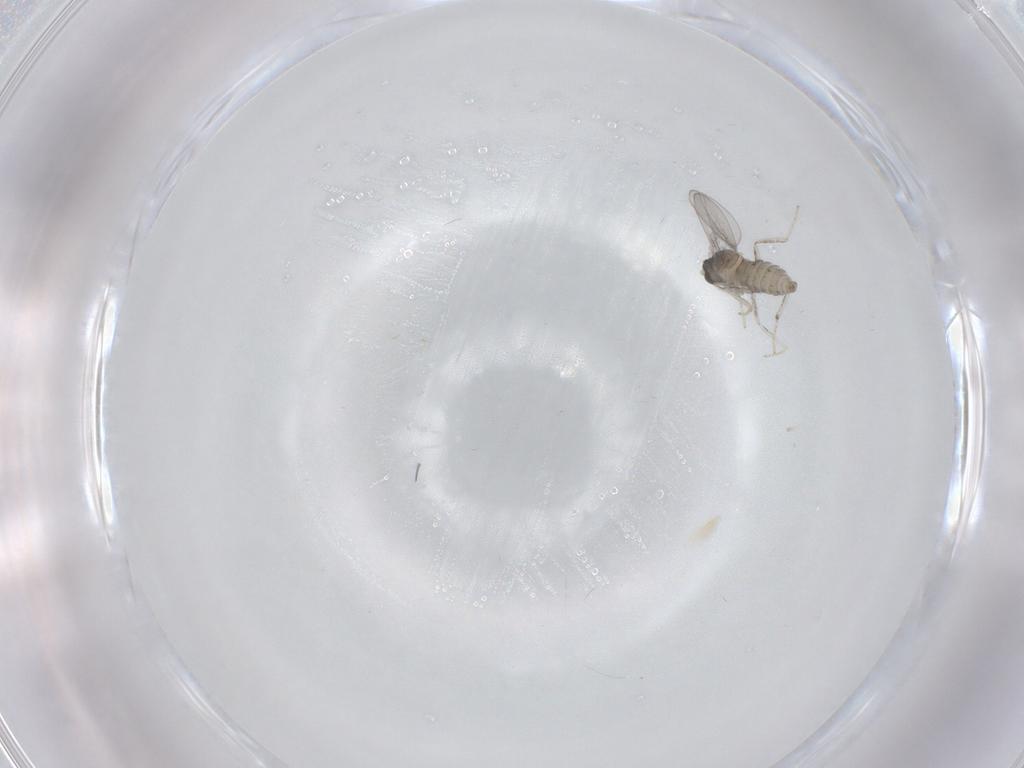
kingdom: Animalia
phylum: Arthropoda
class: Insecta
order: Diptera
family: Cecidomyiidae
